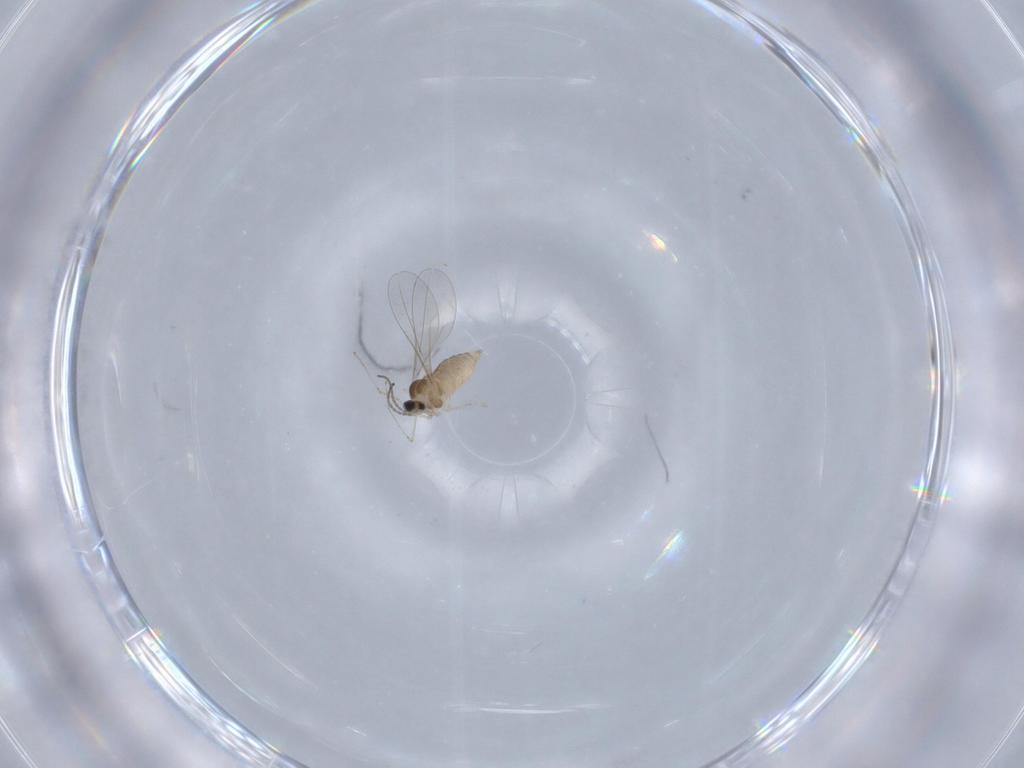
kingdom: Animalia
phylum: Arthropoda
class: Insecta
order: Diptera
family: Cecidomyiidae
